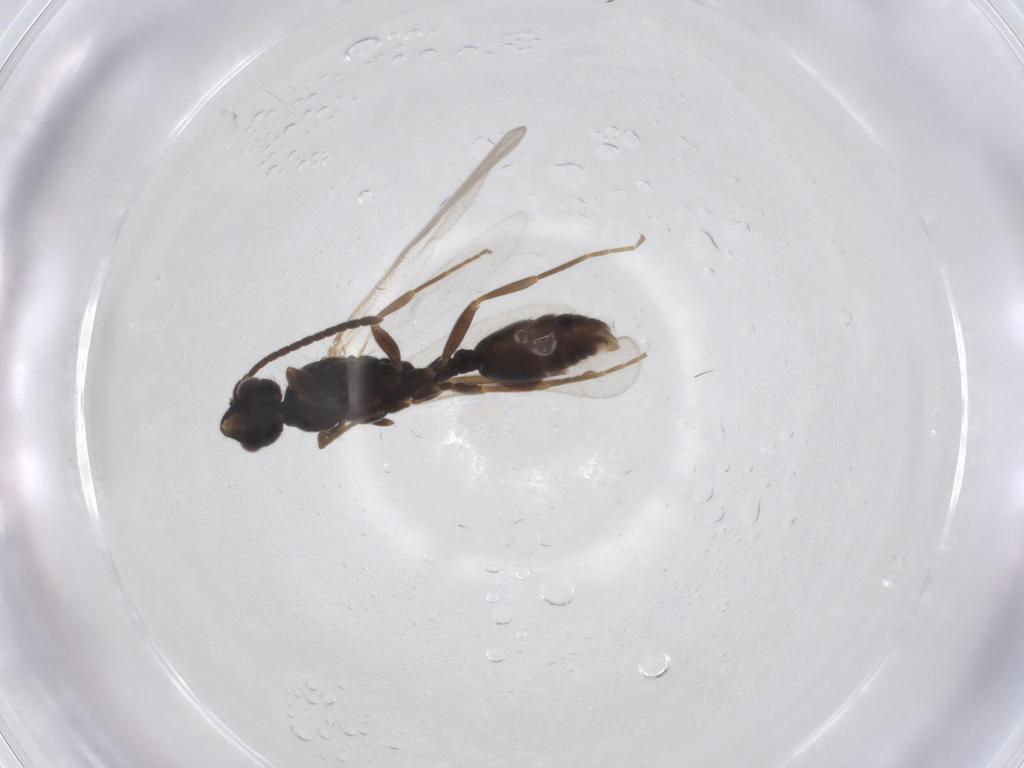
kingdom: Animalia
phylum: Arthropoda
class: Insecta
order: Hymenoptera
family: Formicidae
